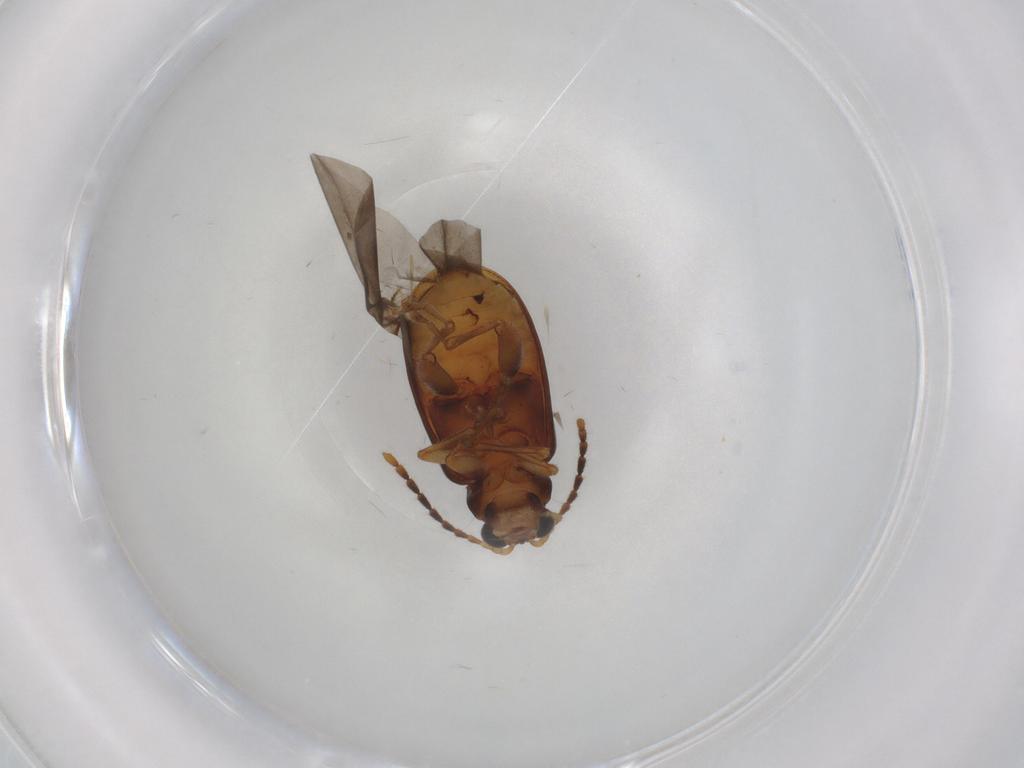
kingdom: Animalia
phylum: Arthropoda
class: Insecta
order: Coleoptera
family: Chrysomelidae
